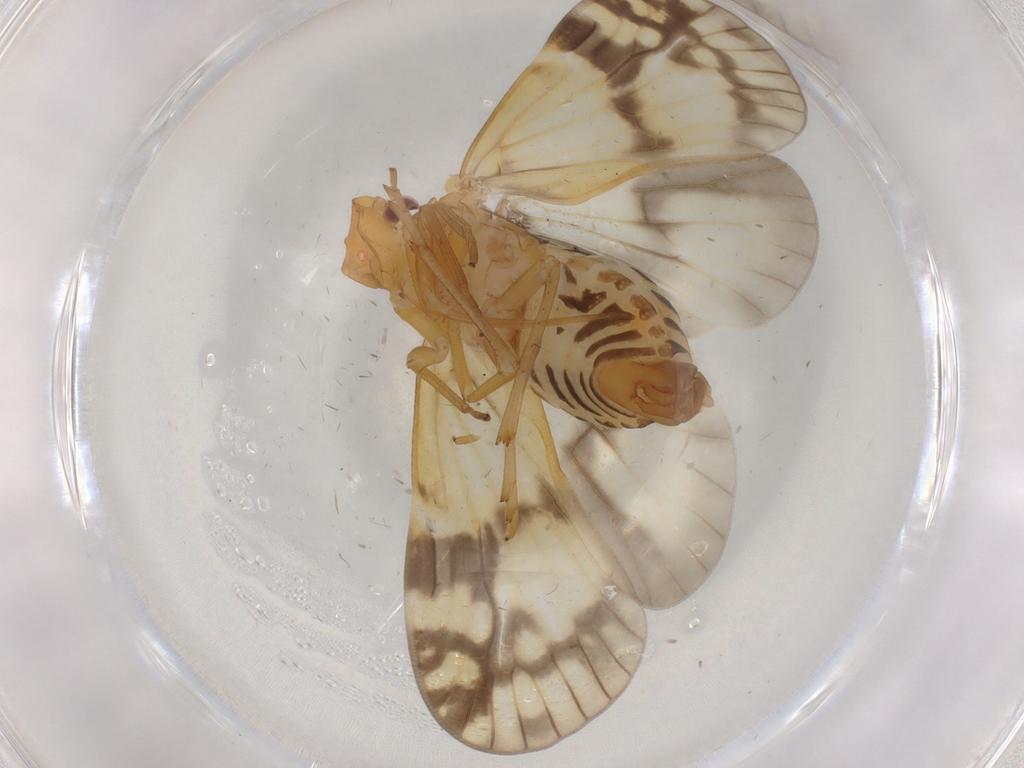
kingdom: Animalia
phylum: Arthropoda
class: Insecta
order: Hemiptera
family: Cixiidae
